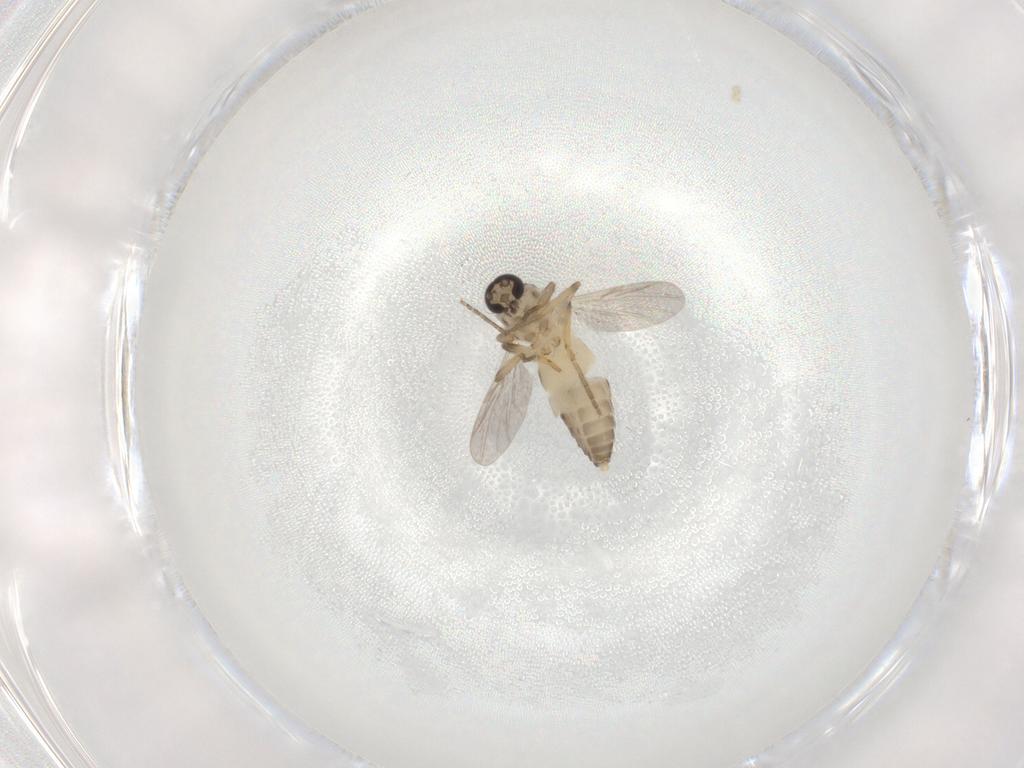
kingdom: Animalia
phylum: Arthropoda
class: Insecta
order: Diptera
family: Ceratopogonidae
